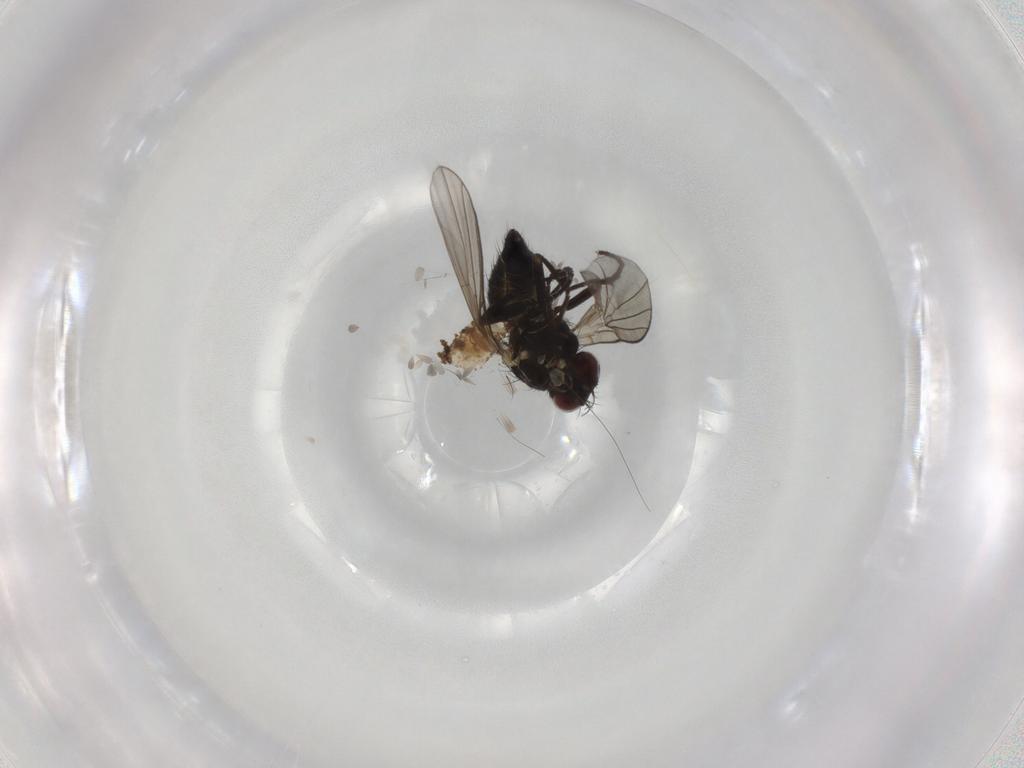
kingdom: Animalia
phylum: Arthropoda
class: Insecta
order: Diptera
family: Agromyzidae
